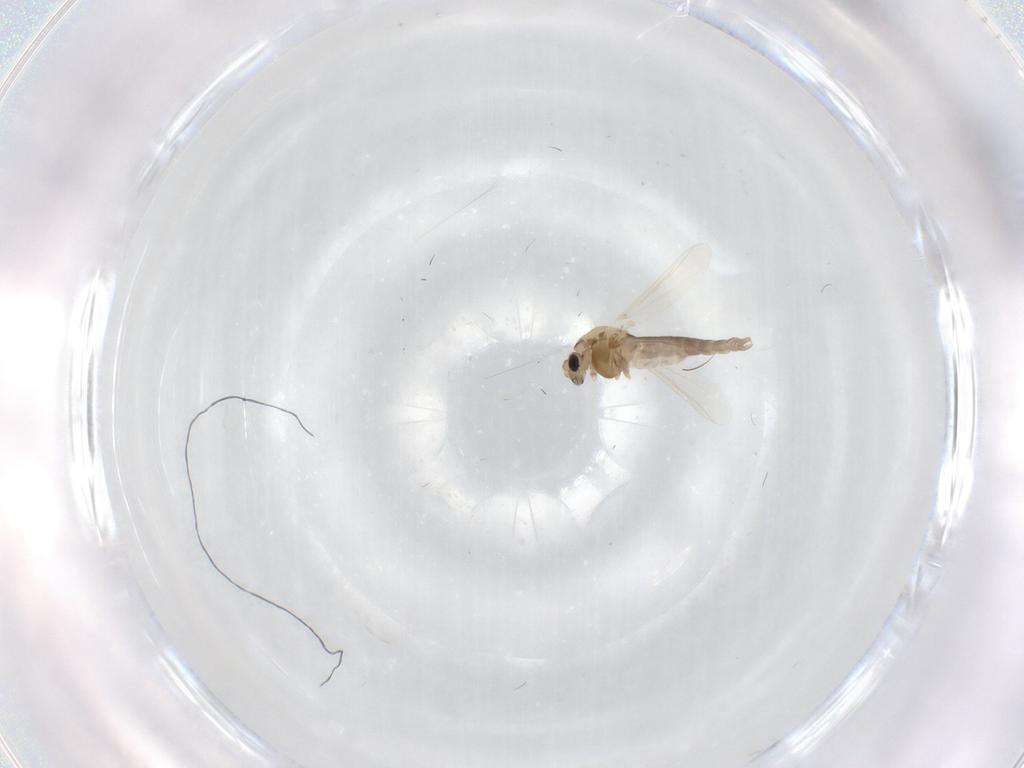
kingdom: Animalia
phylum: Arthropoda
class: Insecta
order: Diptera
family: Chironomidae
